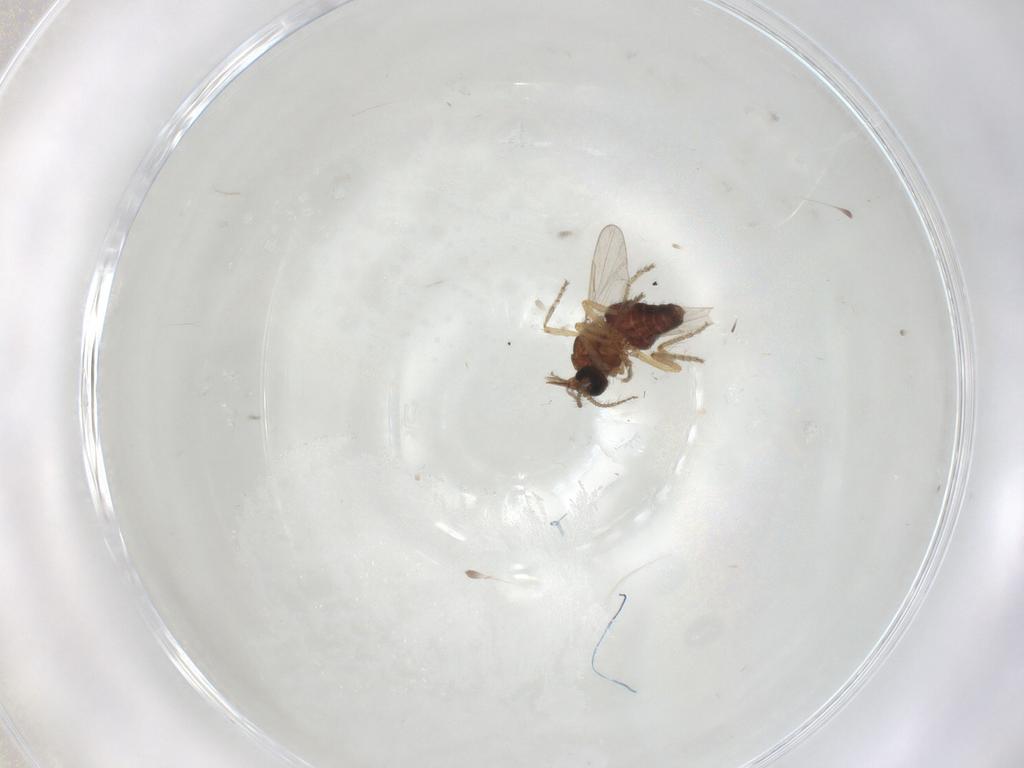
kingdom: Animalia
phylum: Arthropoda
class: Insecta
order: Diptera
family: Ceratopogonidae
